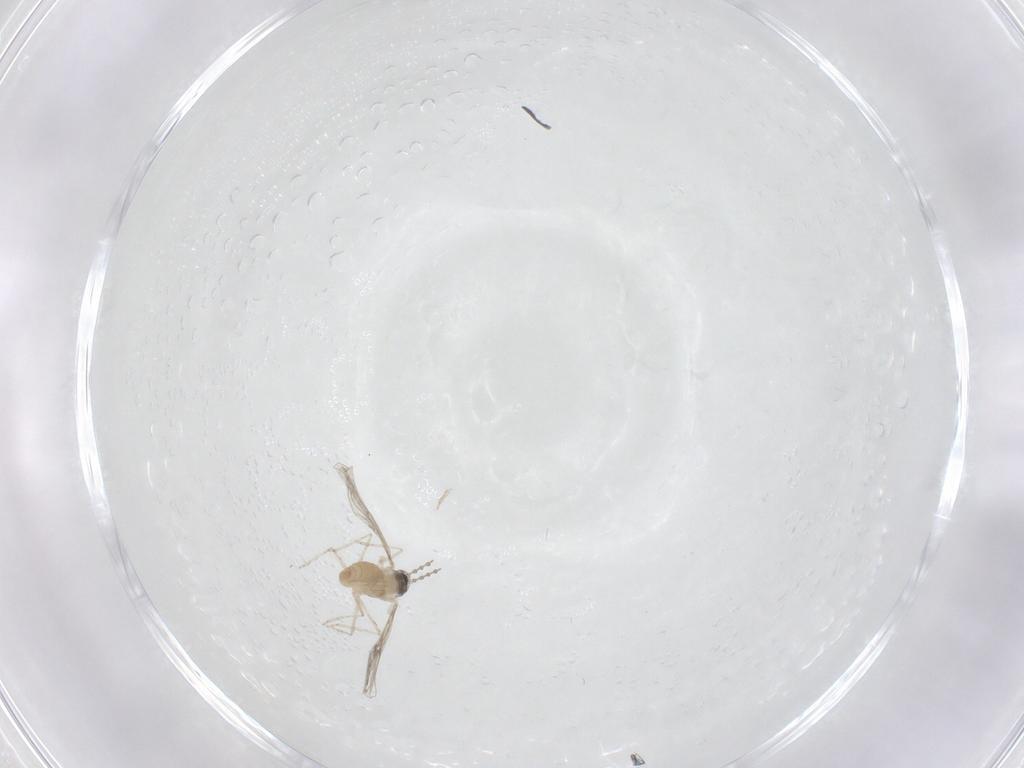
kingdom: Animalia
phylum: Arthropoda
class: Insecta
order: Diptera
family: Cecidomyiidae
